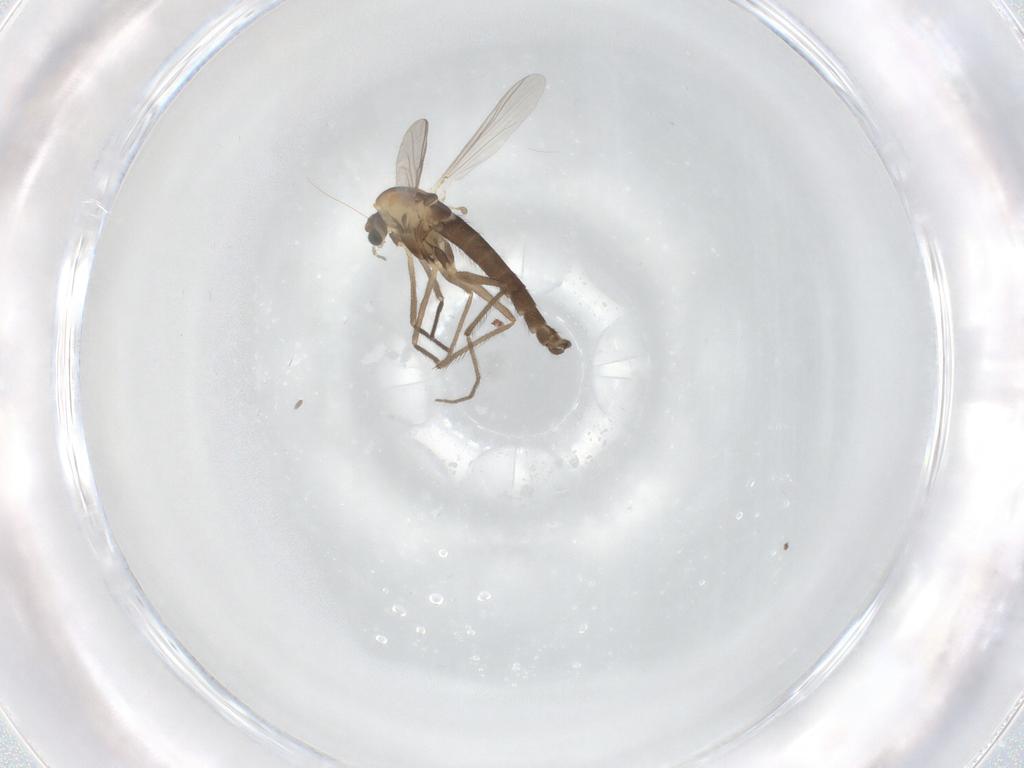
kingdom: Animalia
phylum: Arthropoda
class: Insecta
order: Diptera
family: Chironomidae
